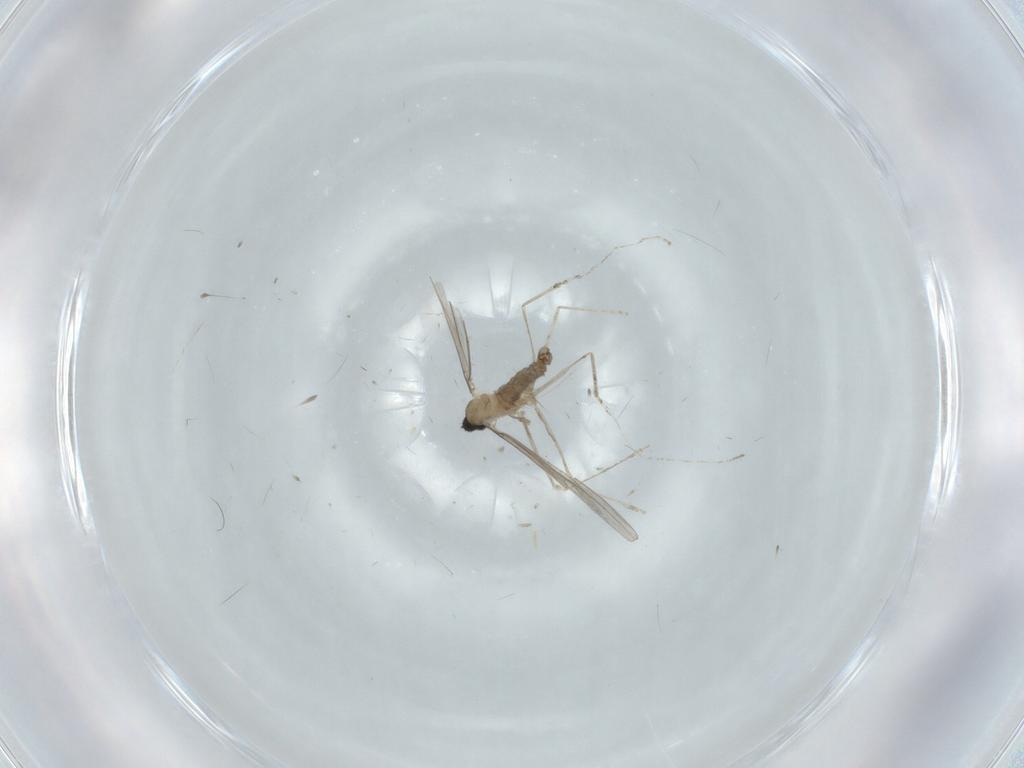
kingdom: Animalia
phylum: Arthropoda
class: Insecta
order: Diptera
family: Cecidomyiidae
